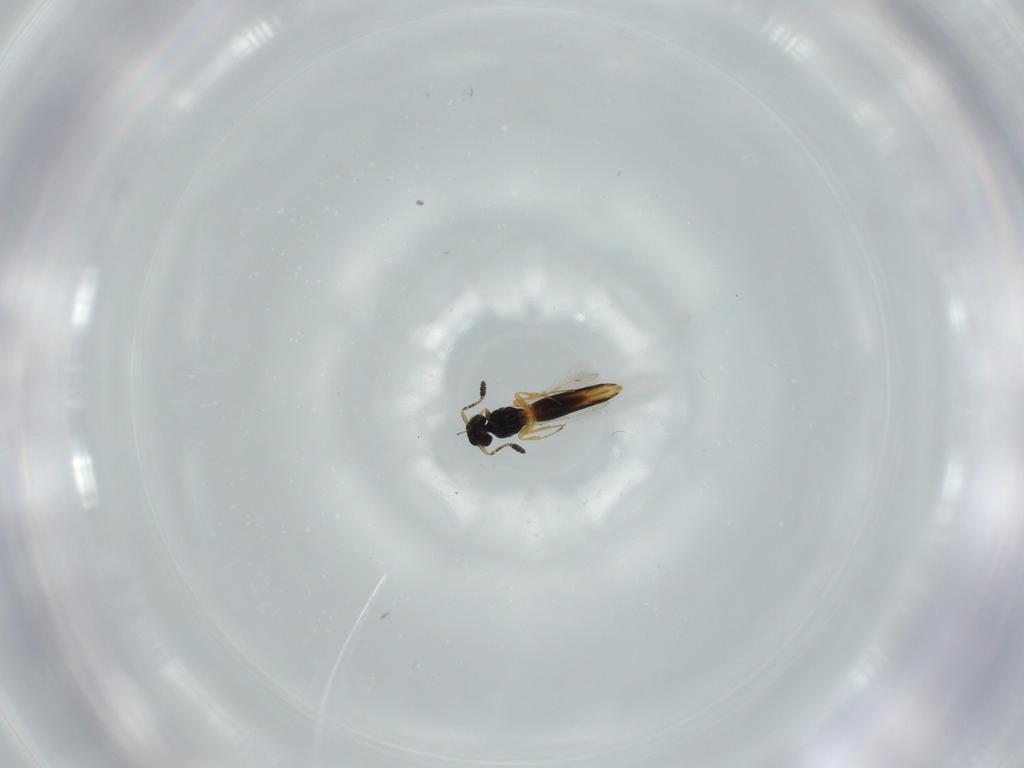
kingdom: Animalia
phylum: Arthropoda
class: Insecta
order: Hymenoptera
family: Scelionidae
